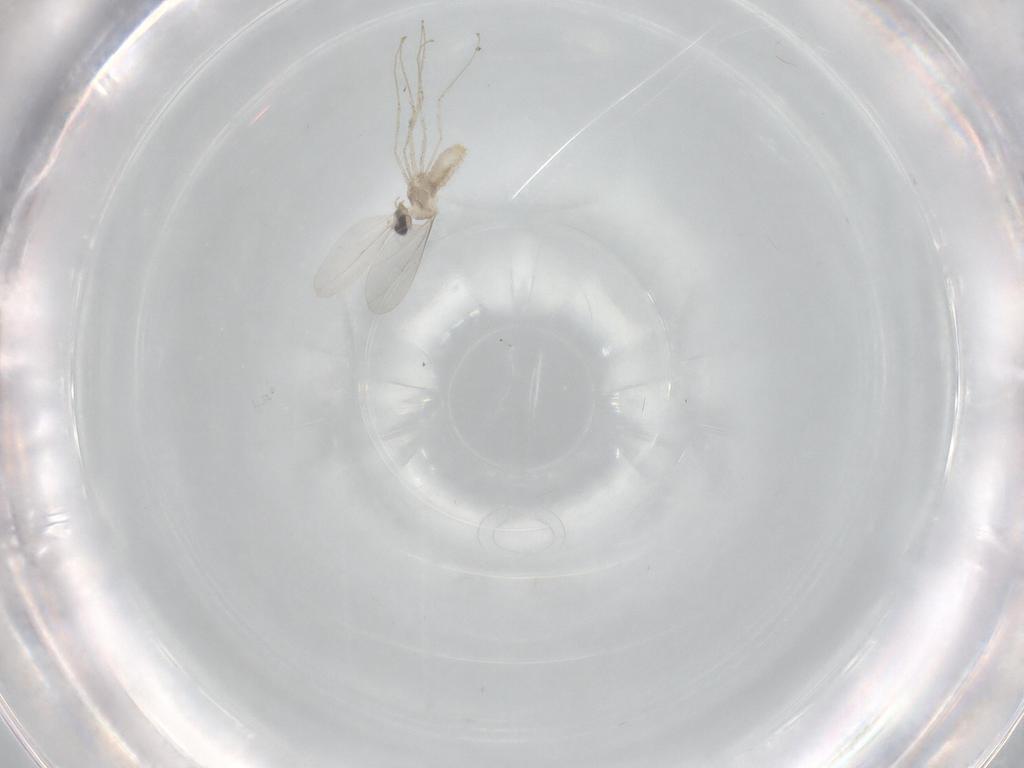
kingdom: Animalia
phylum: Arthropoda
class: Insecta
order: Diptera
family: Cecidomyiidae
